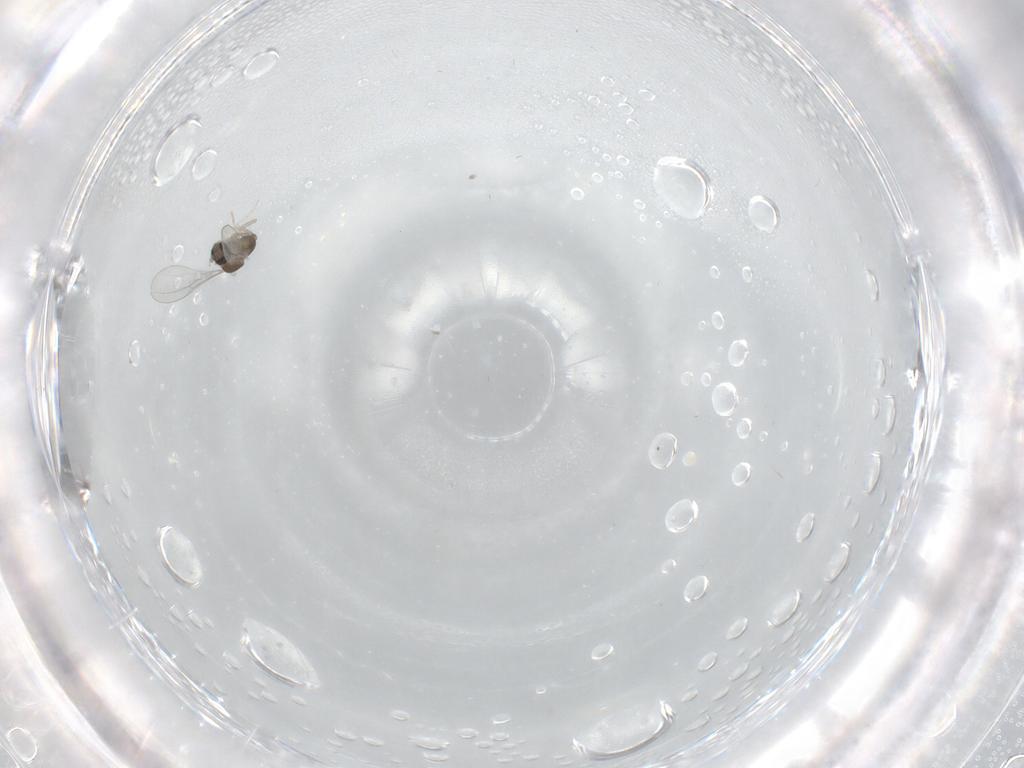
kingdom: Animalia
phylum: Arthropoda
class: Insecta
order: Diptera
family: Cecidomyiidae
